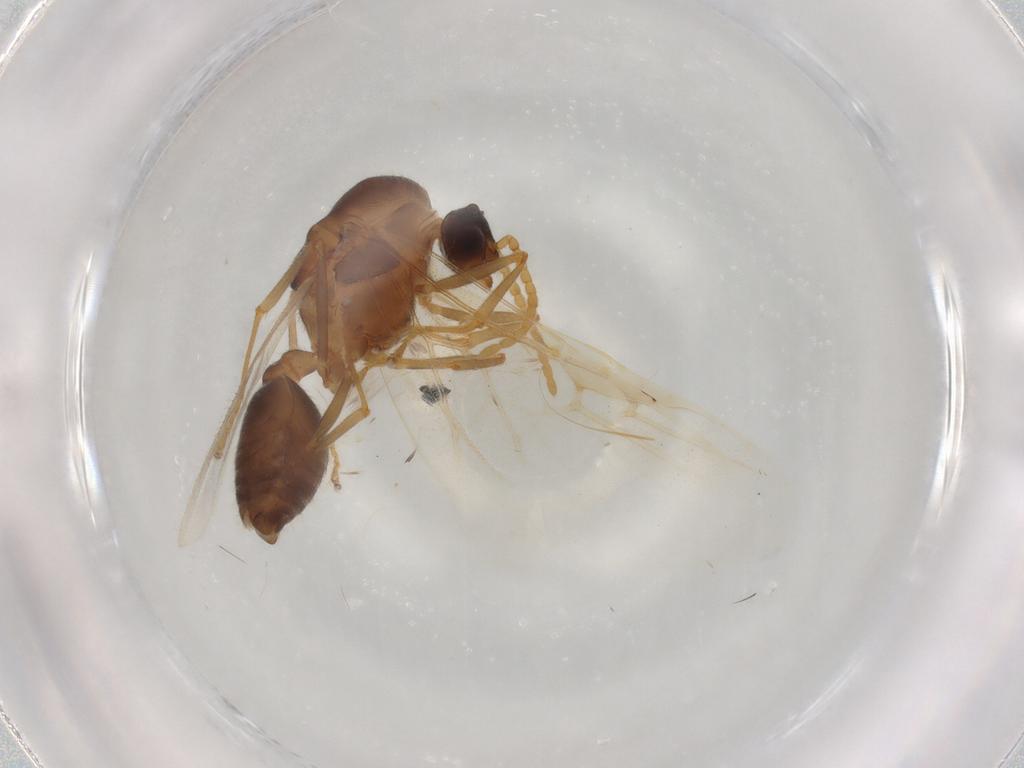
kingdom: Animalia
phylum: Arthropoda
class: Insecta
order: Hymenoptera
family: Formicidae
